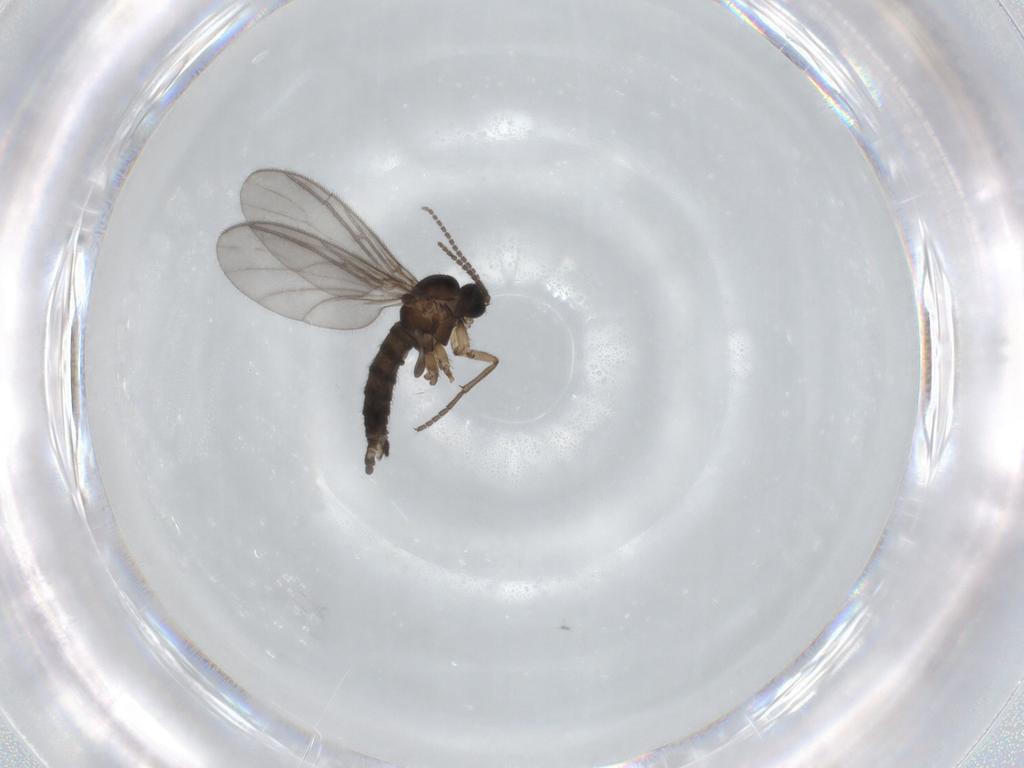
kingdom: Animalia
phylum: Arthropoda
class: Insecta
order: Diptera
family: Sciaridae
